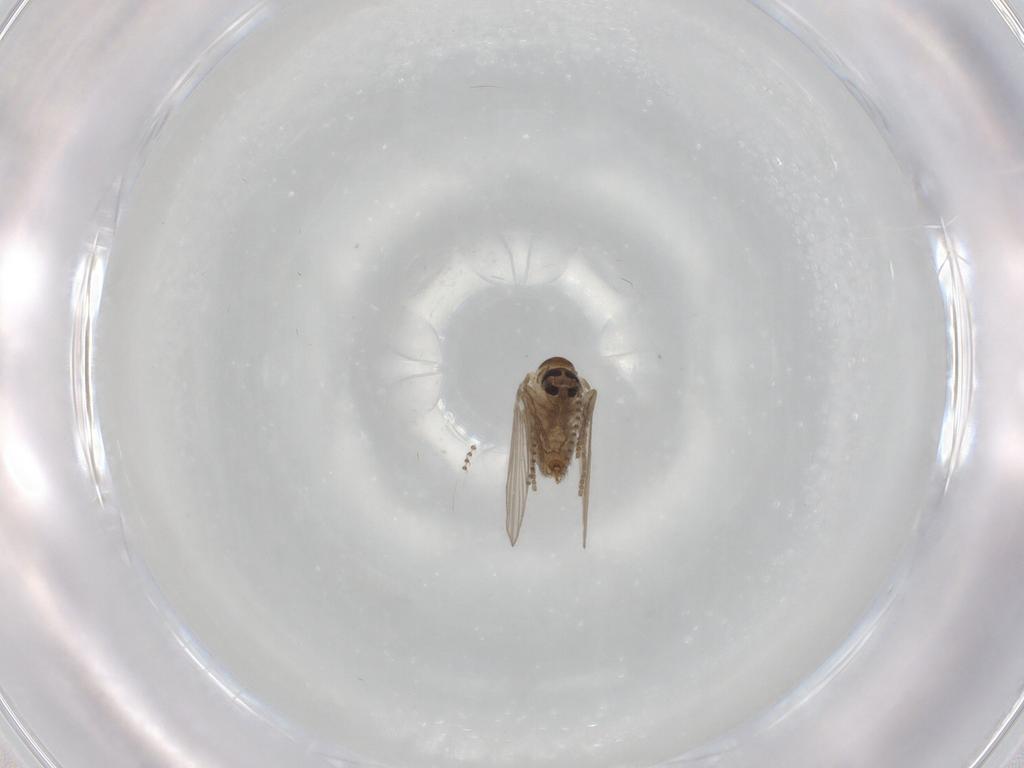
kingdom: Animalia
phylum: Arthropoda
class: Insecta
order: Diptera
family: Psychodidae
